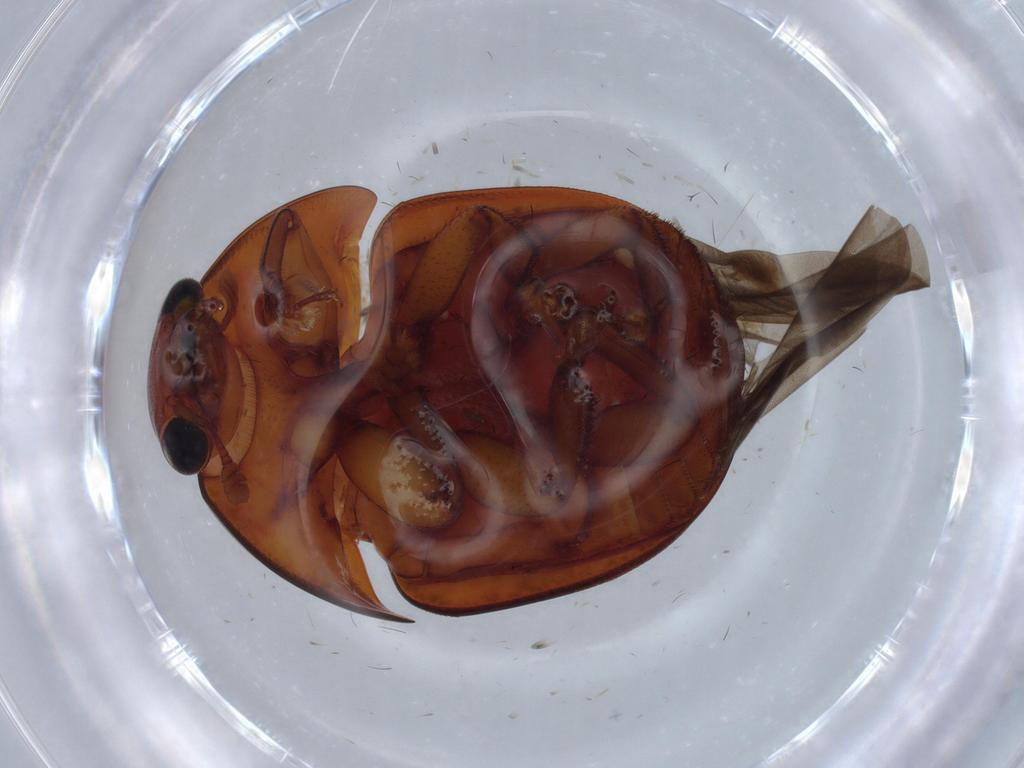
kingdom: Animalia
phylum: Arthropoda
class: Insecta
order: Coleoptera
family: Nitidulidae
